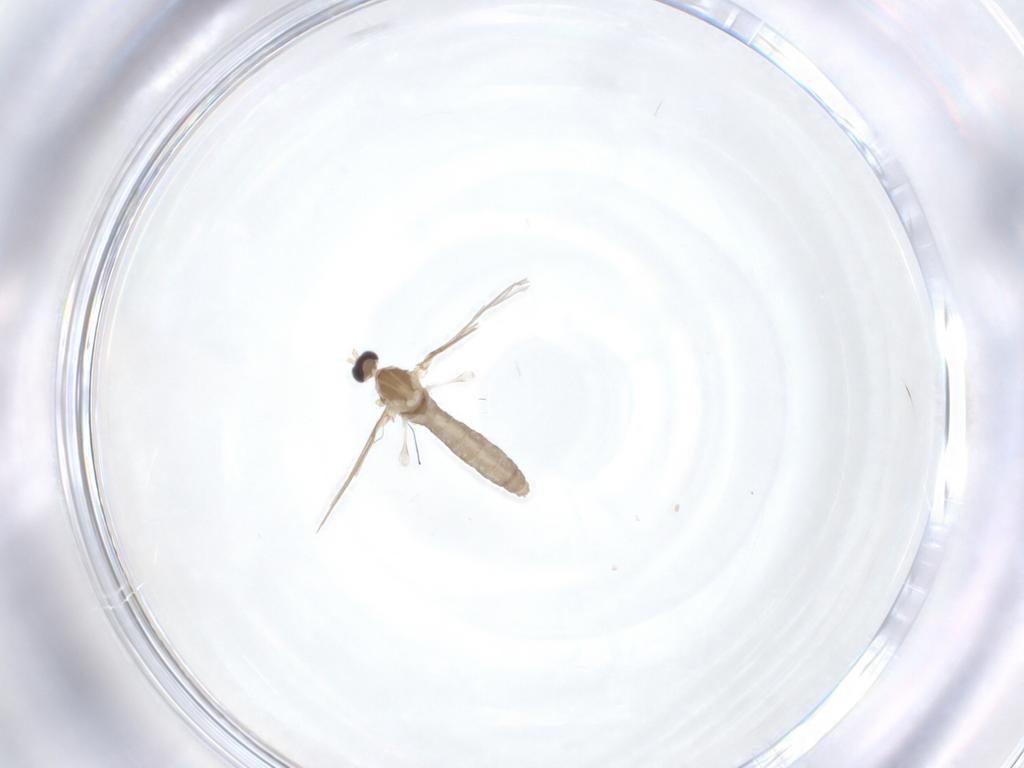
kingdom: Animalia
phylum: Arthropoda
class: Insecta
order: Diptera
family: Cecidomyiidae
